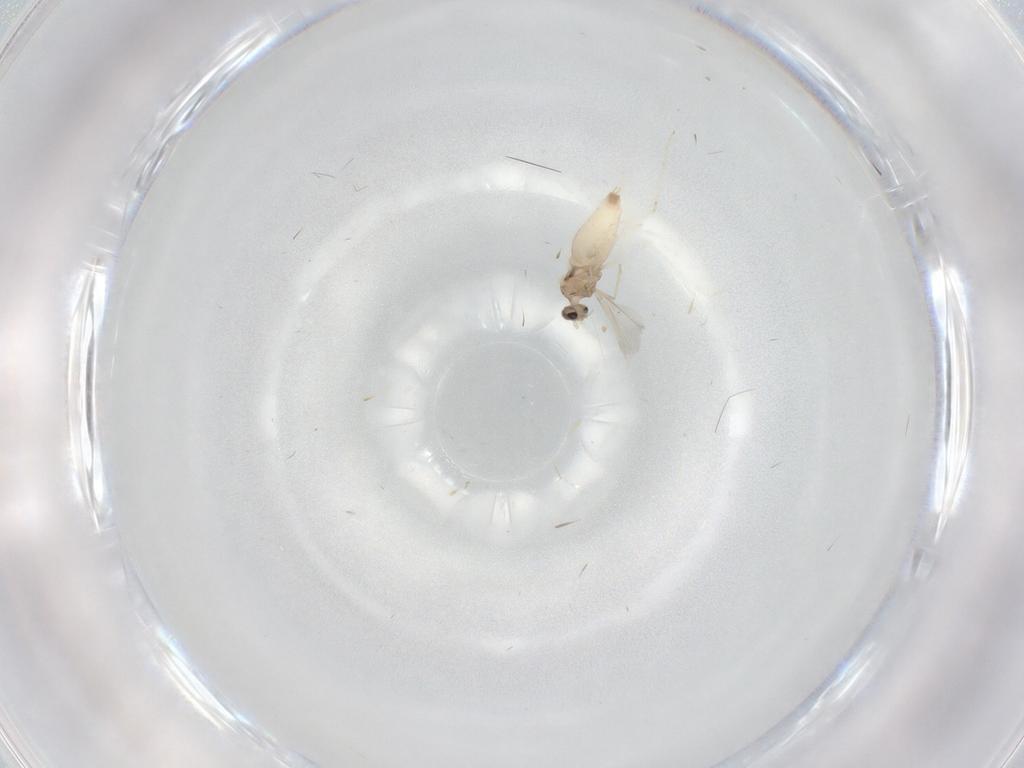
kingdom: Animalia
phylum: Arthropoda
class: Insecta
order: Diptera
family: Cecidomyiidae
